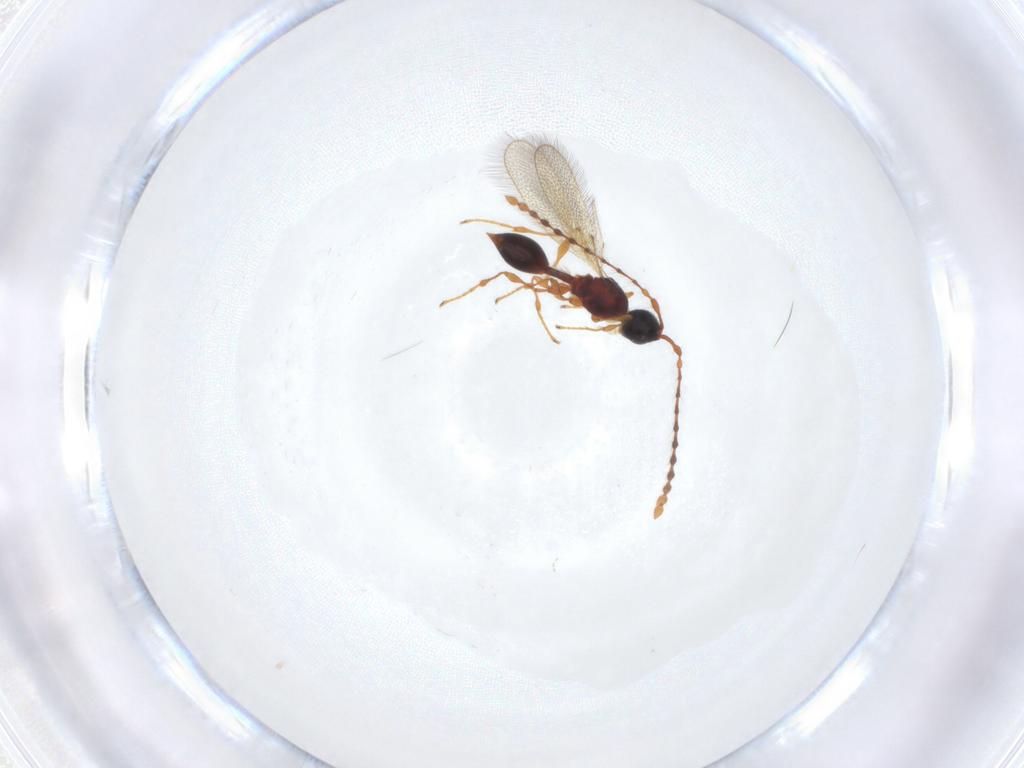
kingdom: Animalia
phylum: Arthropoda
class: Insecta
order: Hymenoptera
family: Diapriidae
